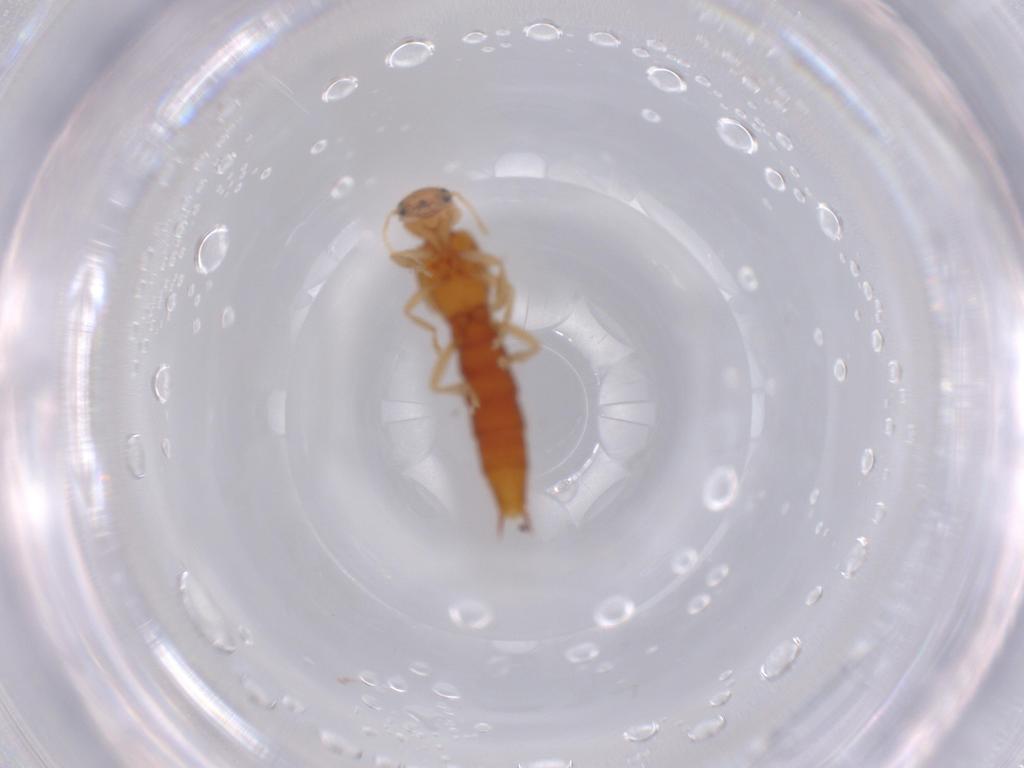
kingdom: Animalia
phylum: Arthropoda
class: Insecta
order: Coleoptera
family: Staphylinidae
